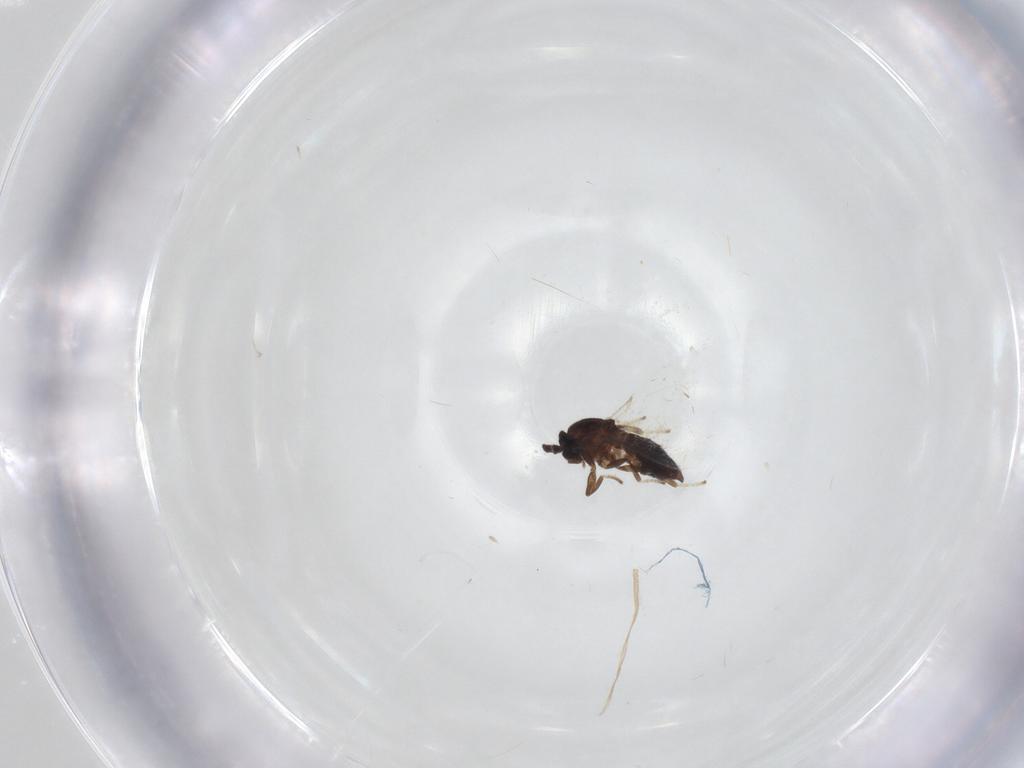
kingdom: Animalia
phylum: Arthropoda
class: Insecta
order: Diptera
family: Scatopsidae
